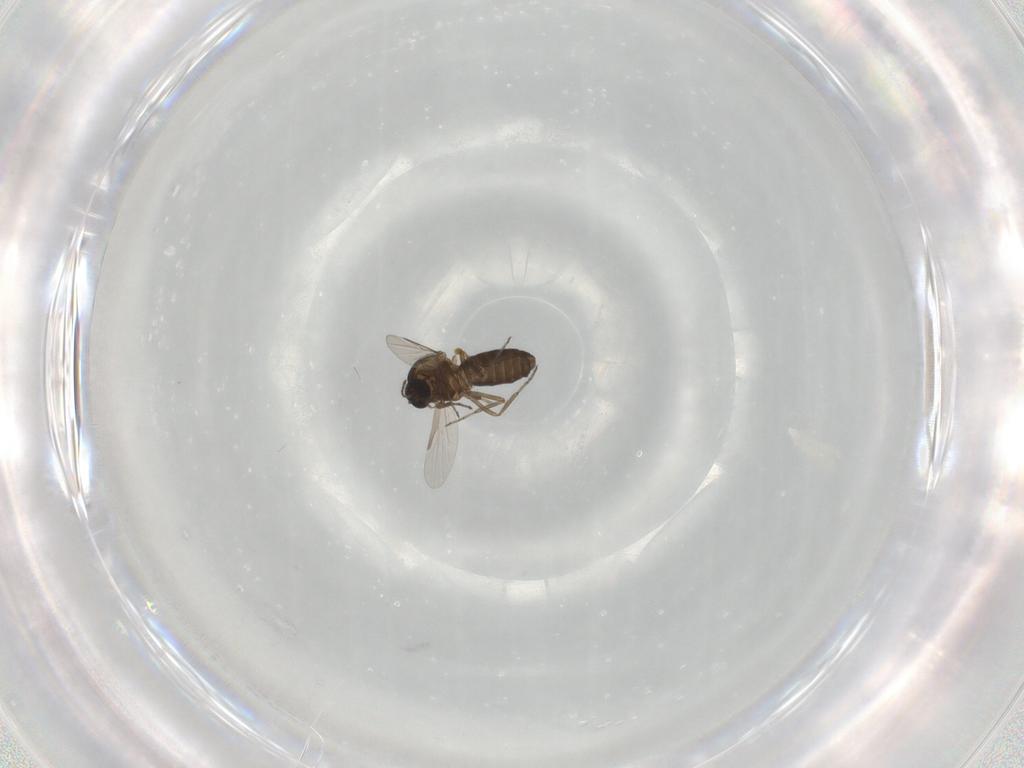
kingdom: Animalia
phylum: Arthropoda
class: Insecta
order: Diptera
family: Ceratopogonidae
